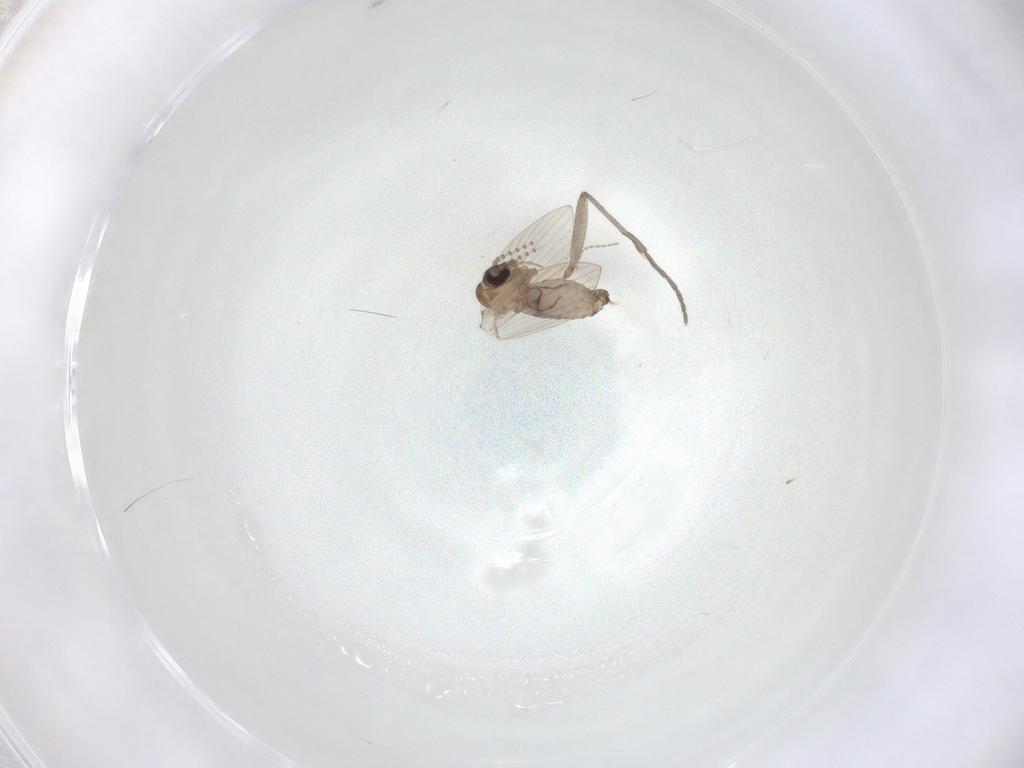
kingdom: Animalia
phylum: Arthropoda
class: Insecta
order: Diptera
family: Psychodidae
